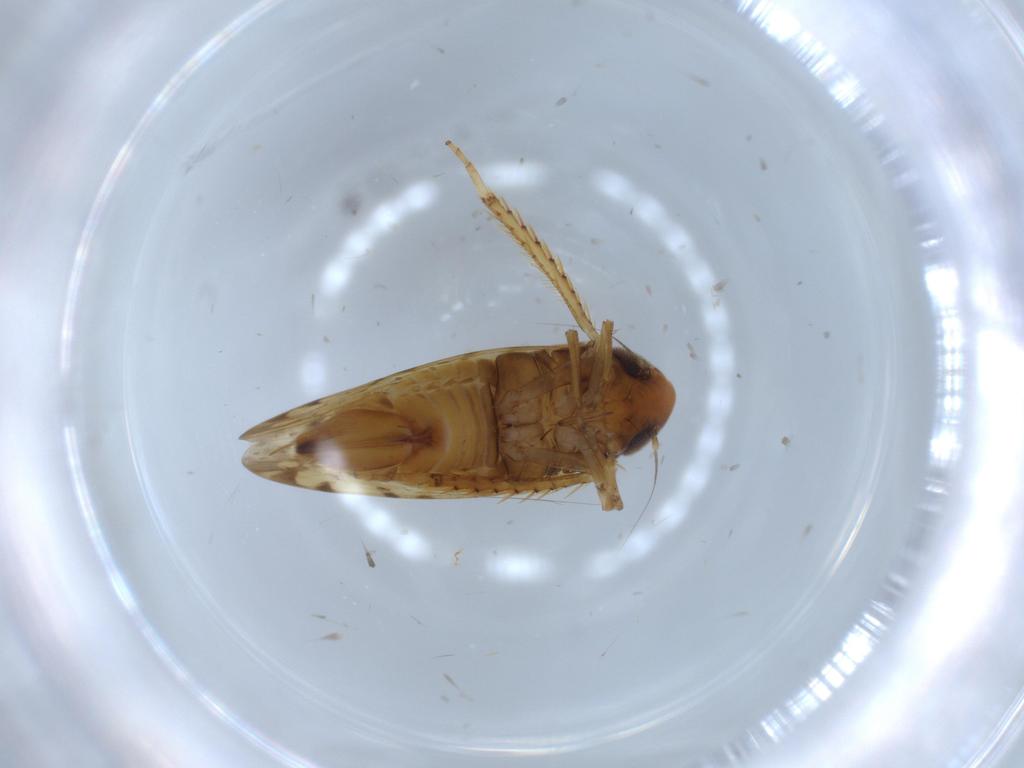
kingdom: Animalia
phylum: Arthropoda
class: Insecta
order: Hemiptera
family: Cicadellidae
